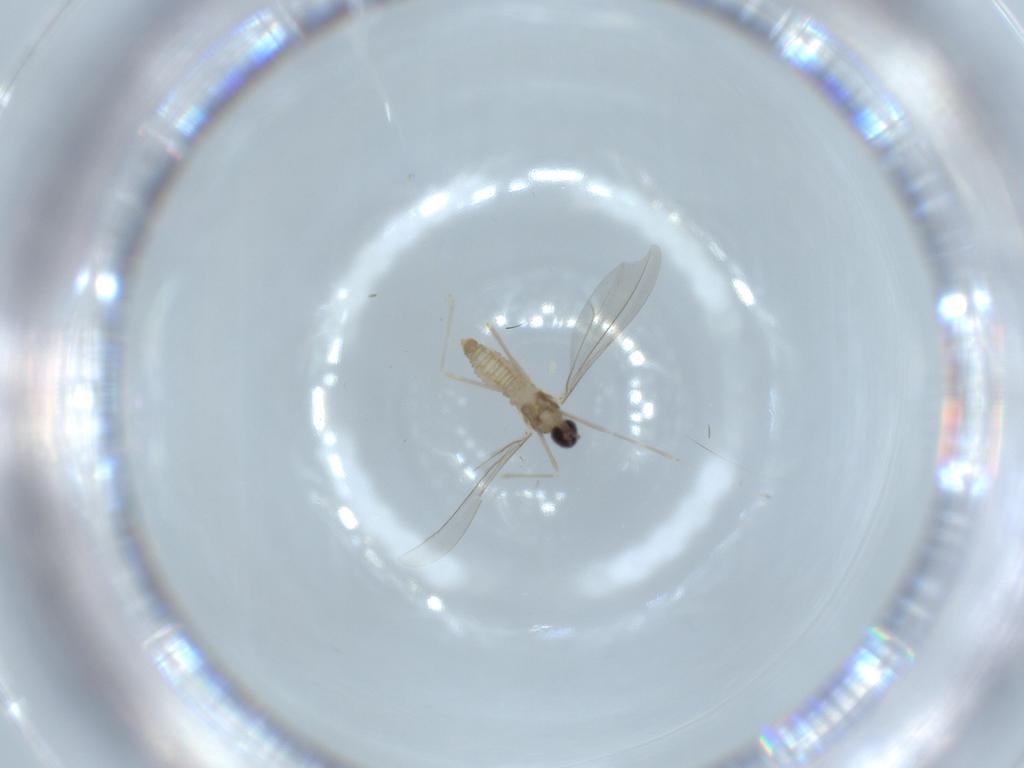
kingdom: Animalia
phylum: Arthropoda
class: Insecta
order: Diptera
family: Cecidomyiidae
